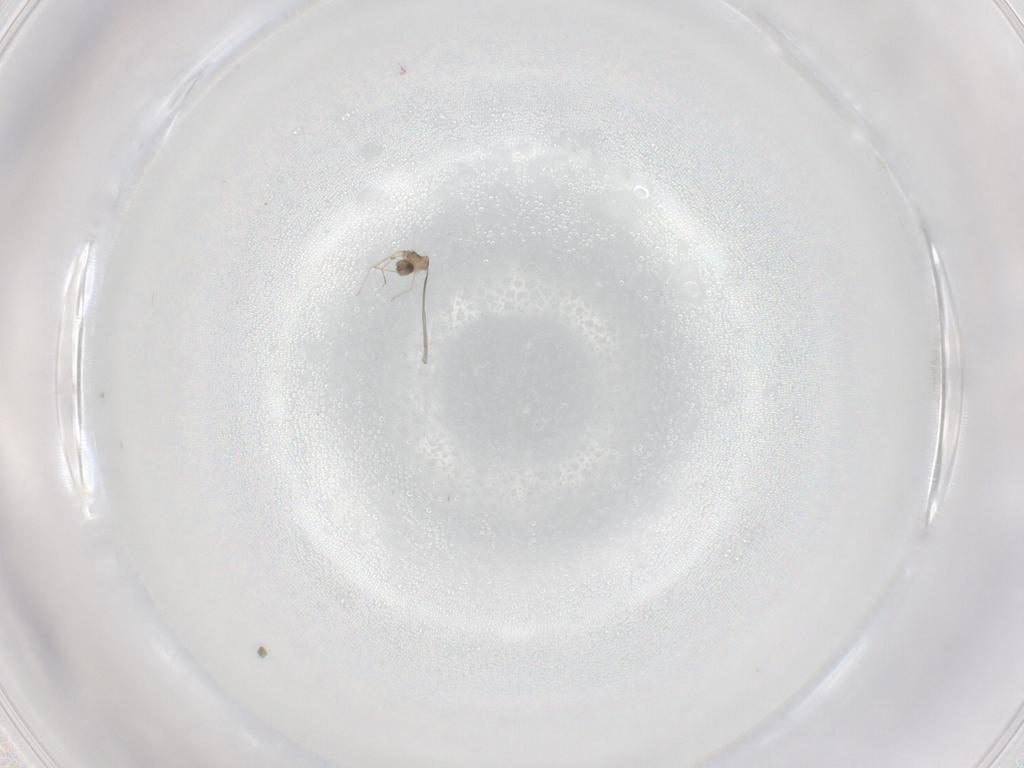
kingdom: Animalia
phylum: Arthropoda
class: Insecta
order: Diptera
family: Cecidomyiidae
